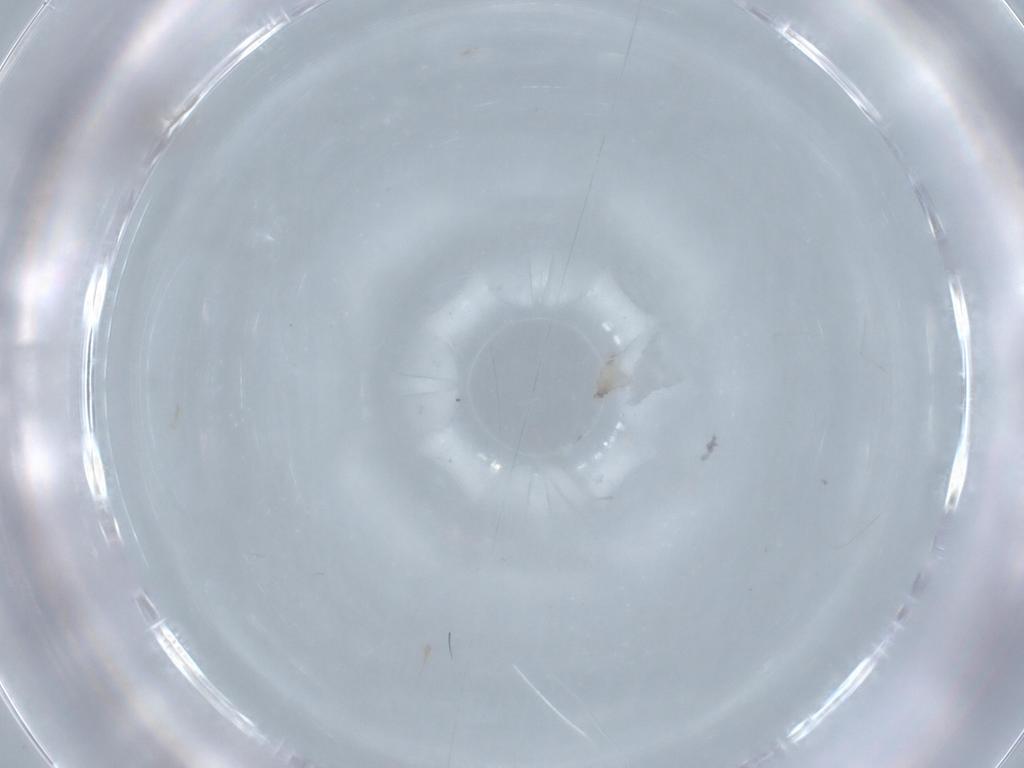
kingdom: Animalia
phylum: Arthropoda
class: Insecta
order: Diptera
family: Cecidomyiidae
